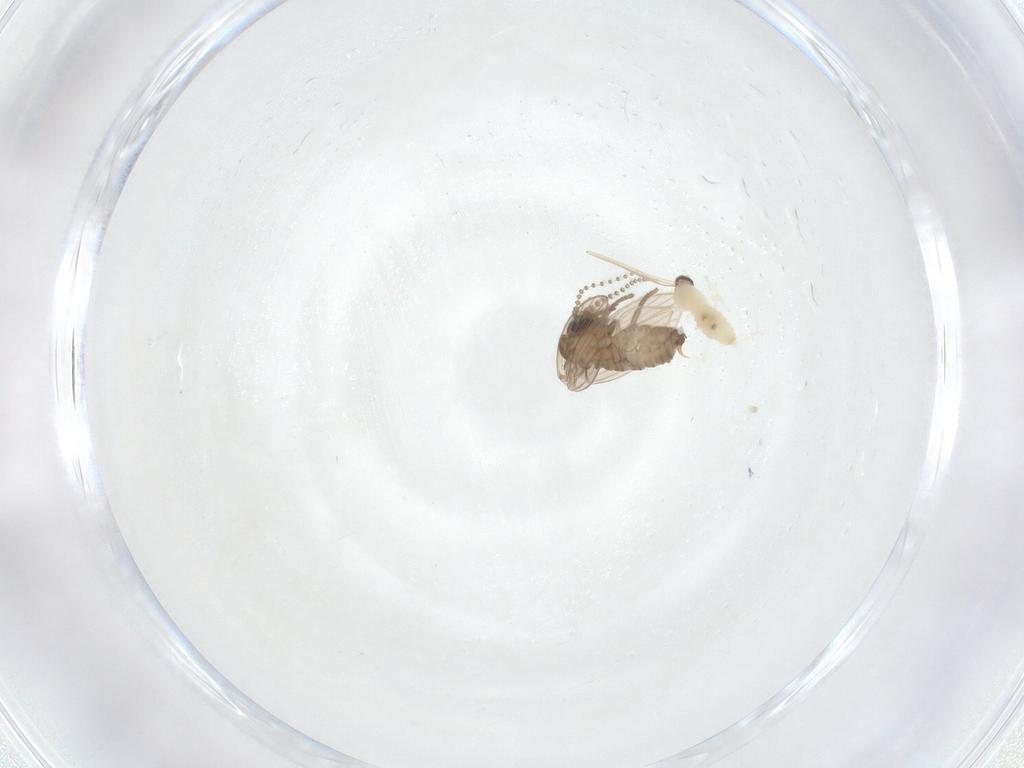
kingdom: Animalia
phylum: Arthropoda
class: Insecta
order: Diptera
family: Cecidomyiidae
